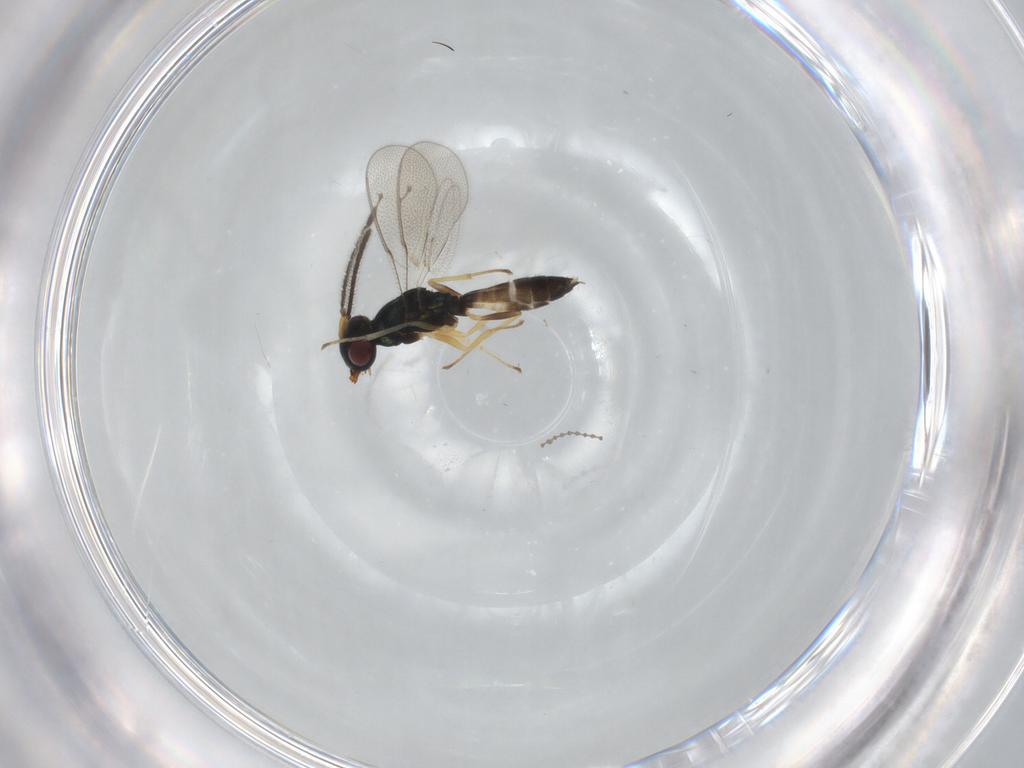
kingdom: Animalia
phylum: Arthropoda
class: Insecta
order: Hymenoptera
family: Pteromalidae
